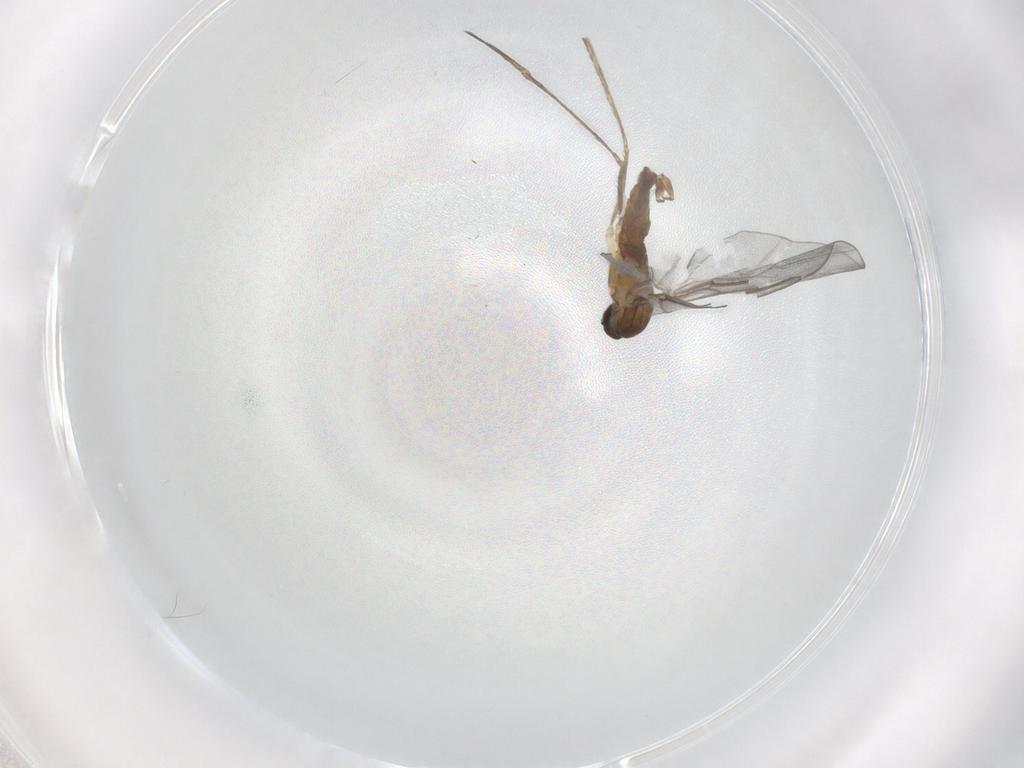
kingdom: Animalia
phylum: Arthropoda
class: Insecta
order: Diptera
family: Cecidomyiidae
